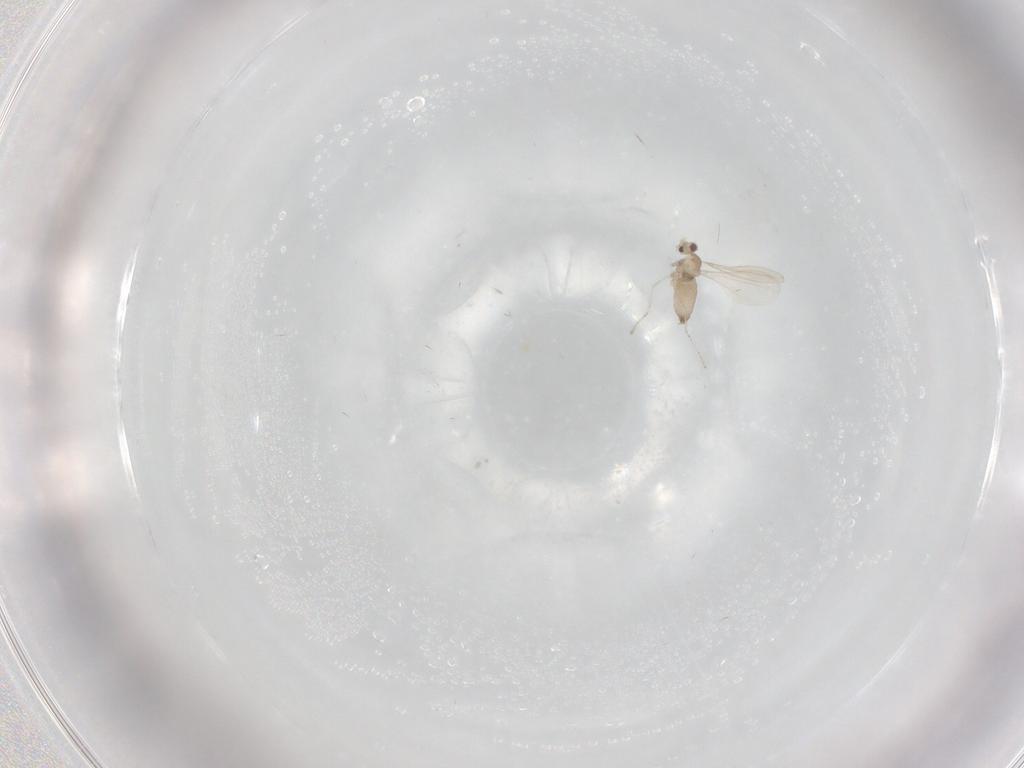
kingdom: Animalia
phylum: Arthropoda
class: Insecta
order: Diptera
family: Cecidomyiidae
